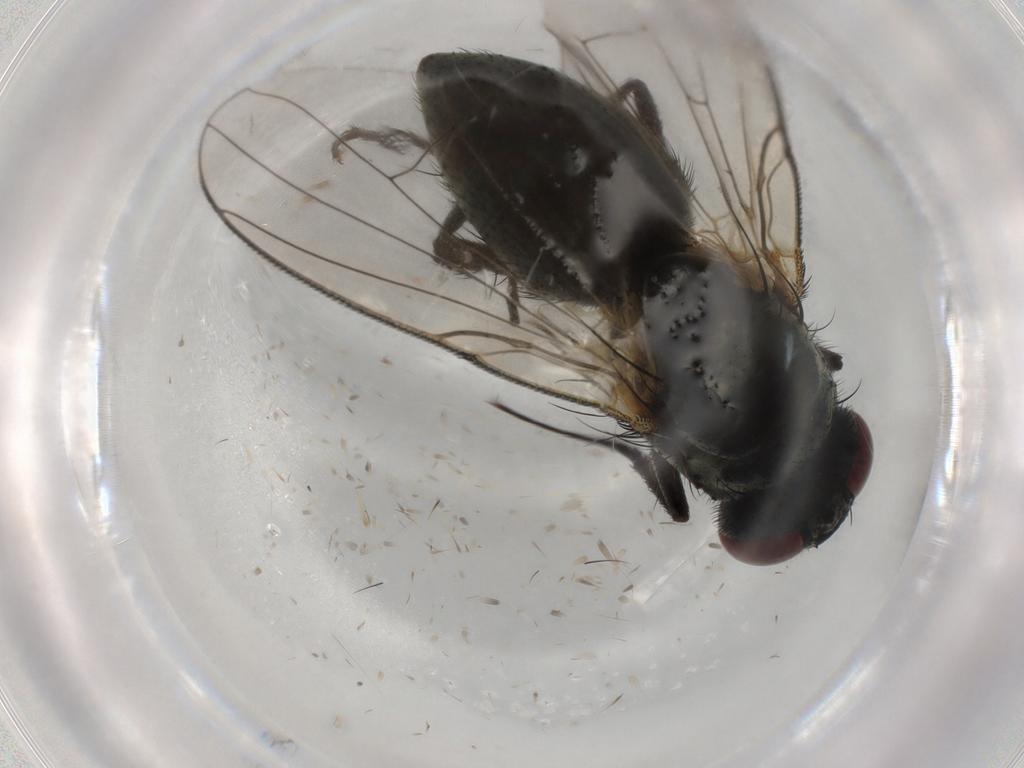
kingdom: Animalia
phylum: Arthropoda
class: Insecta
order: Diptera
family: Muscidae
